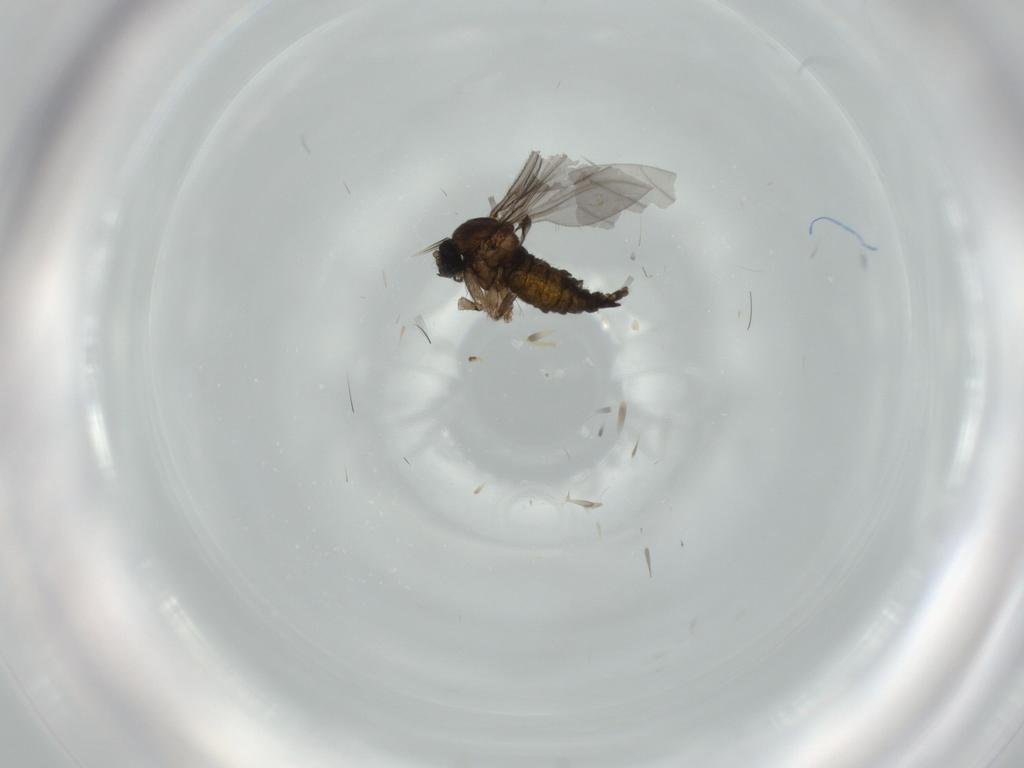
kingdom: Animalia
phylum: Arthropoda
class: Insecta
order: Diptera
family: Sciaridae
